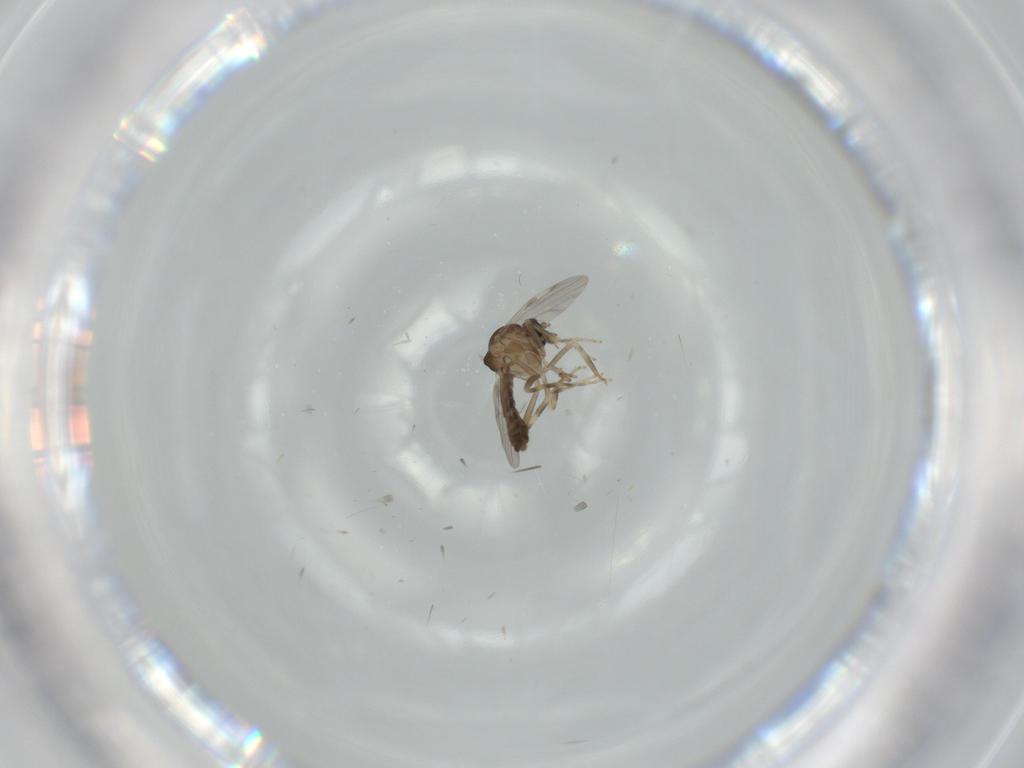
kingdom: Animalia
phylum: Arthropoda
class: Insecta
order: Diptera
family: Ceratopogonidae
